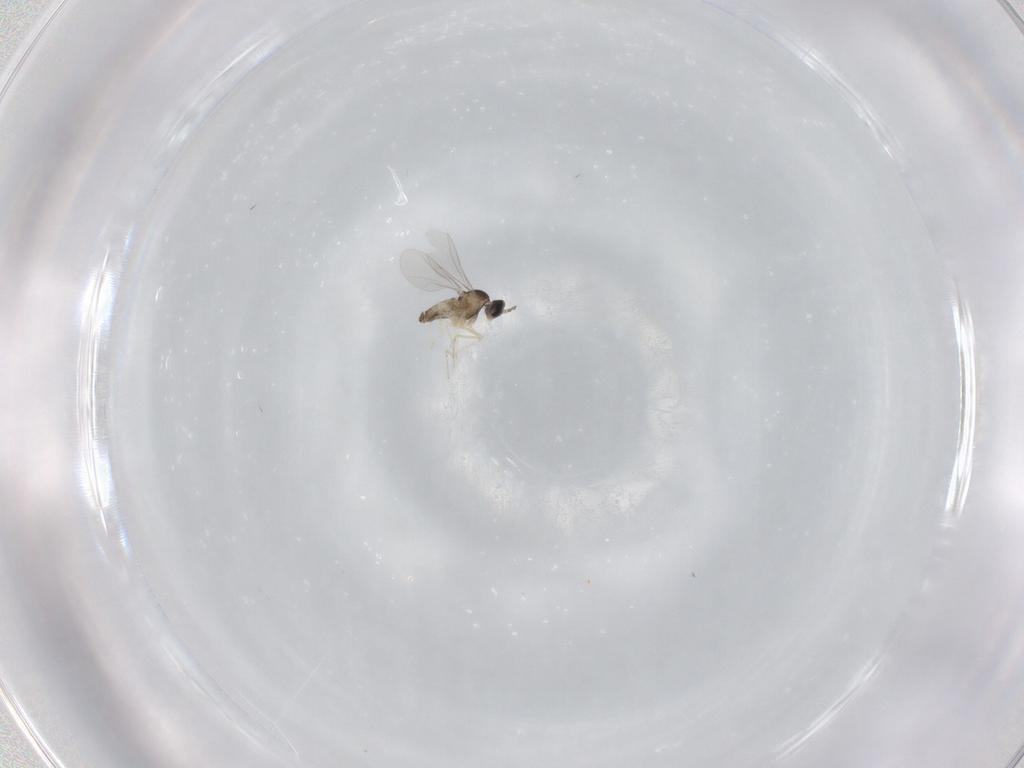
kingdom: Animalia
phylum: Arthropoda
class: Insecta
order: Diptera
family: Cecidomyiidae
